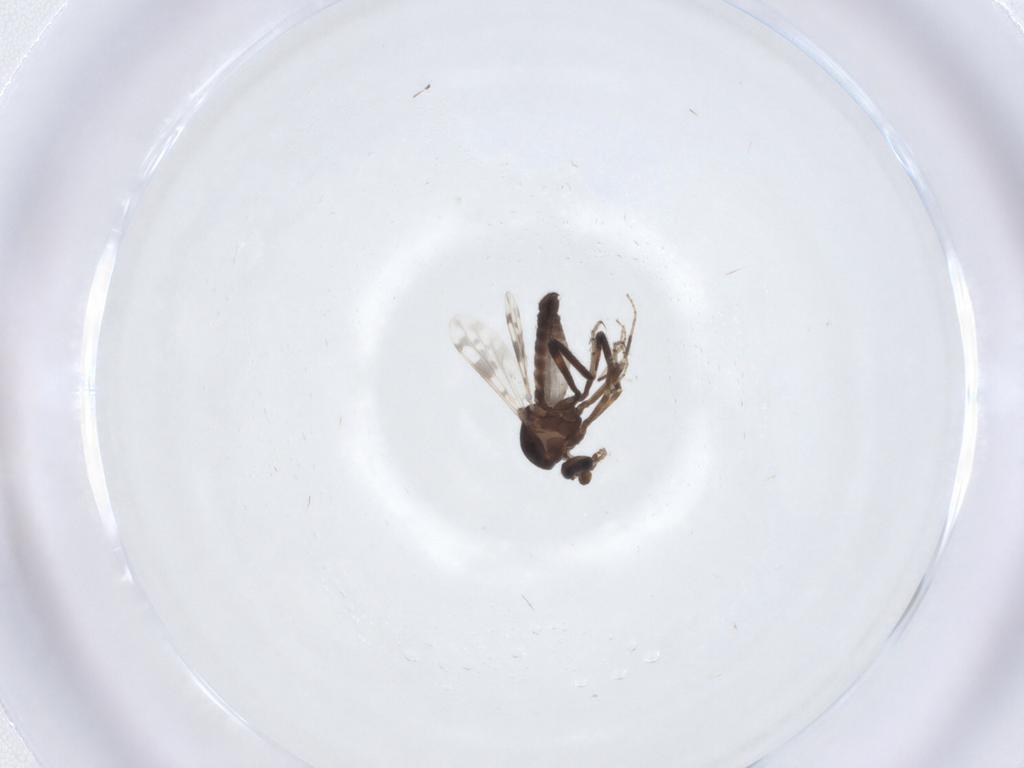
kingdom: Animalia
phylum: Arthropoda
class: Insecta
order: Diptera
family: Ceratopogonidae
